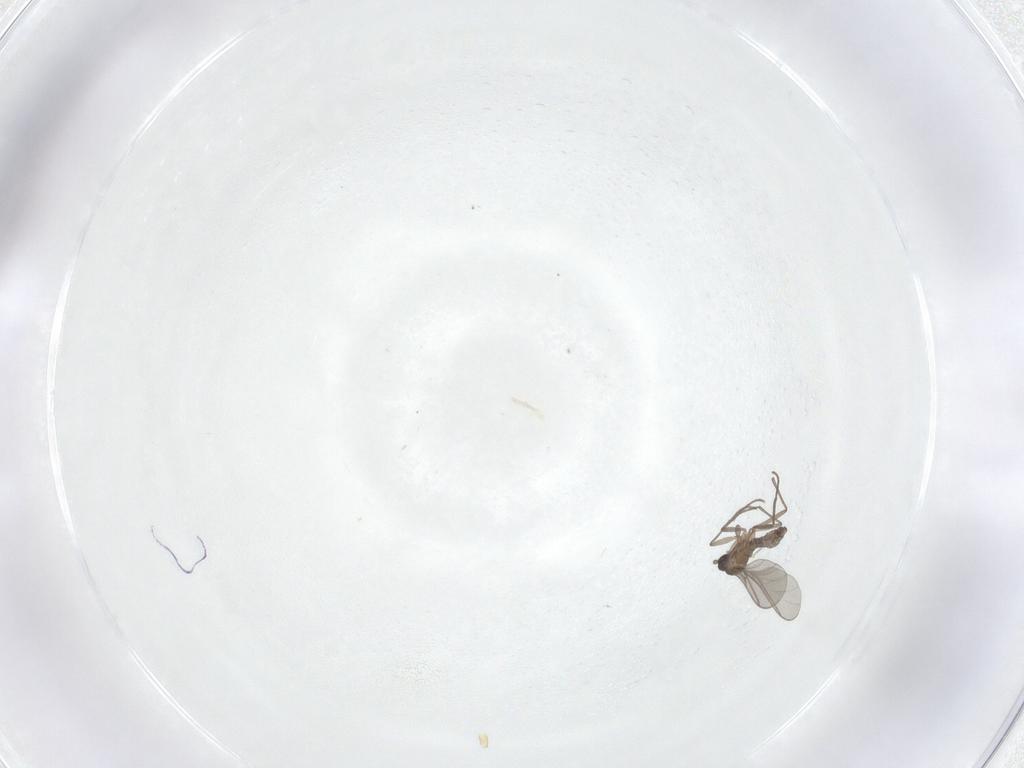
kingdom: Animalia
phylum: Arthropoda
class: Insecta
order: Diptera
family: Sciaridae
